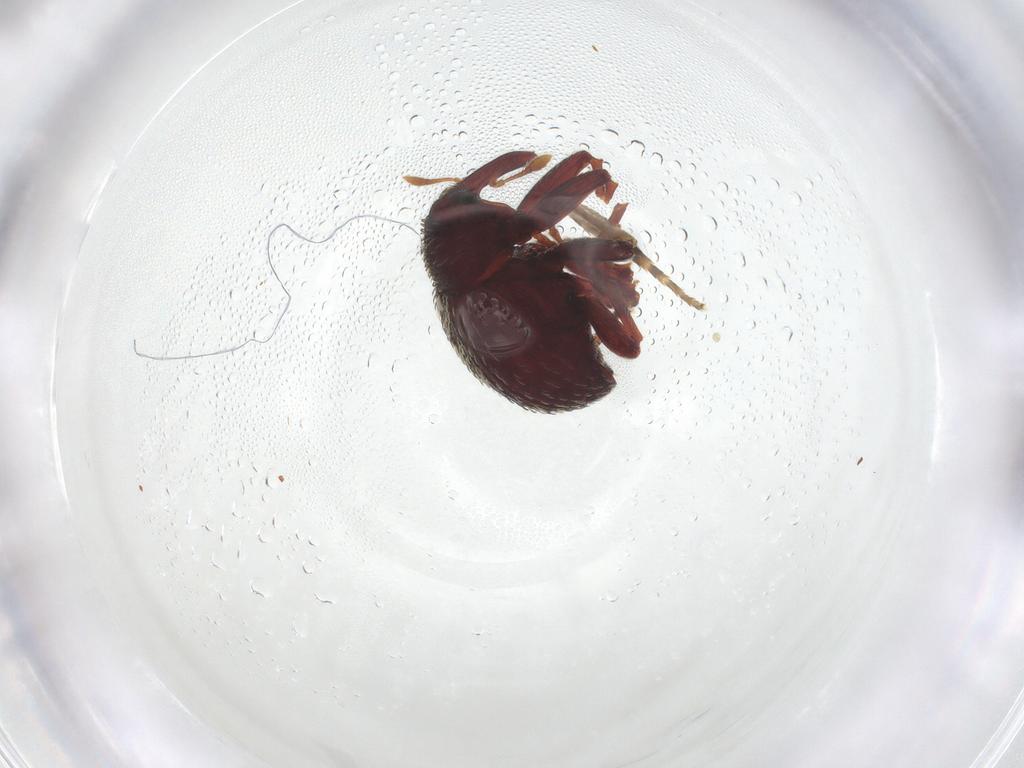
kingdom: Animalia
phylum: Arthropoda
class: Insecta
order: Coleoptera
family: Curculionidae
